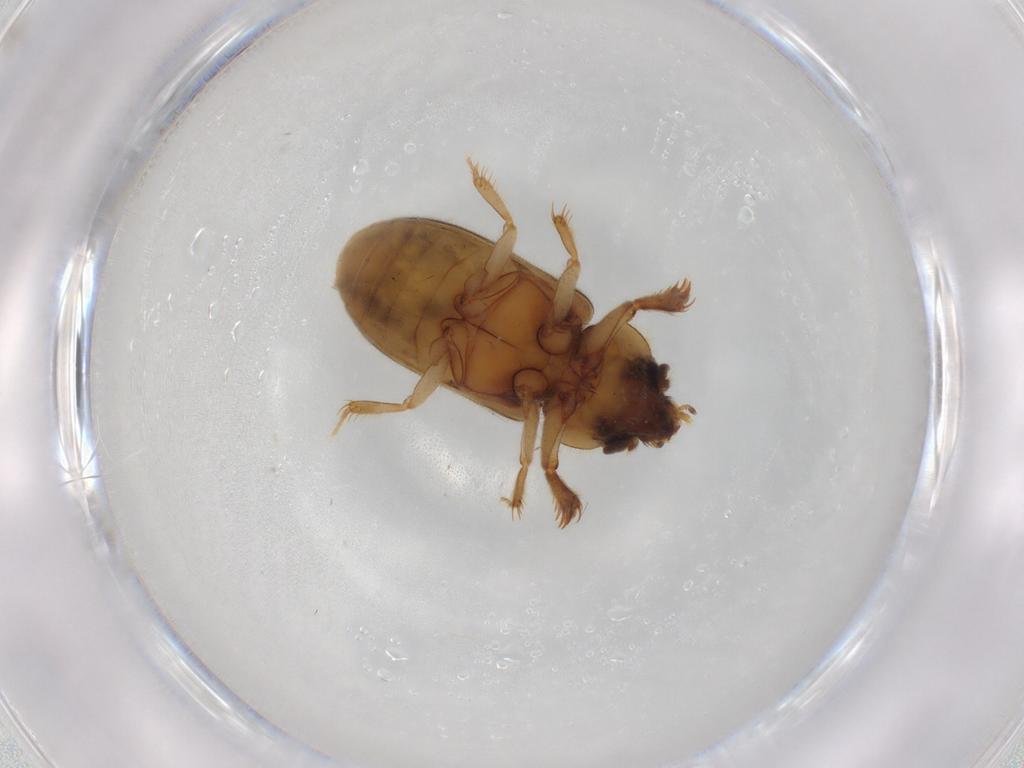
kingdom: Animalia
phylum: Arthropoda
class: Insecta
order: Coleoptera
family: Heteroceridae
